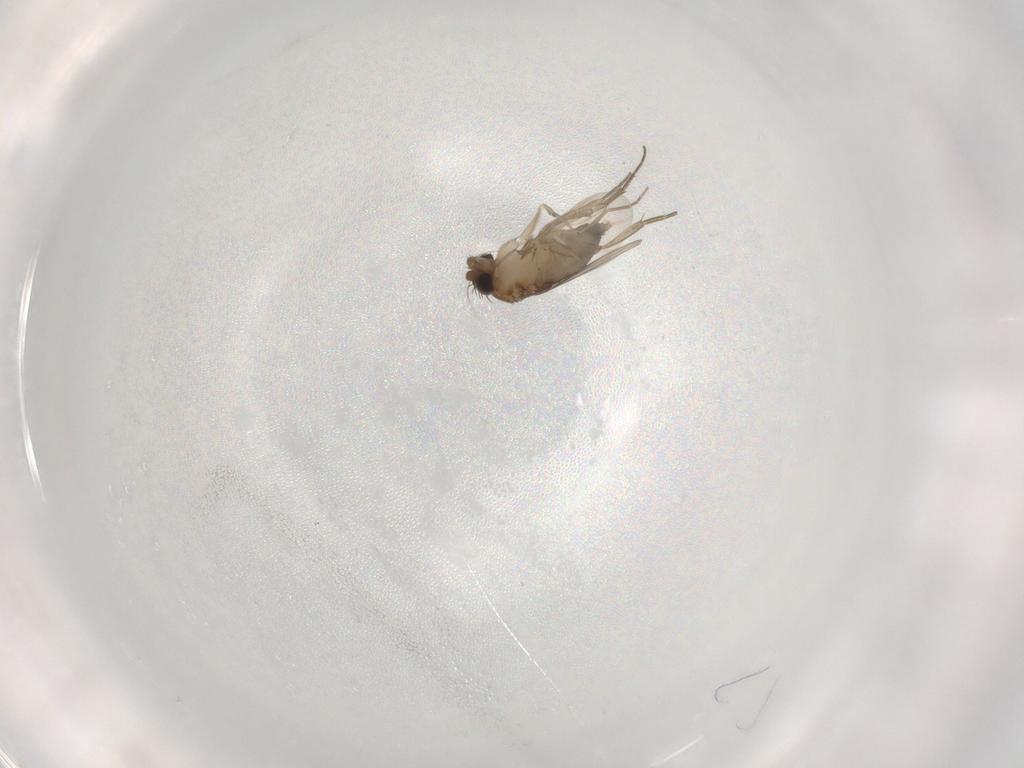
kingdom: Animalia
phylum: Arthropoda
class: Insecta
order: Diptera
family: Phoridae
